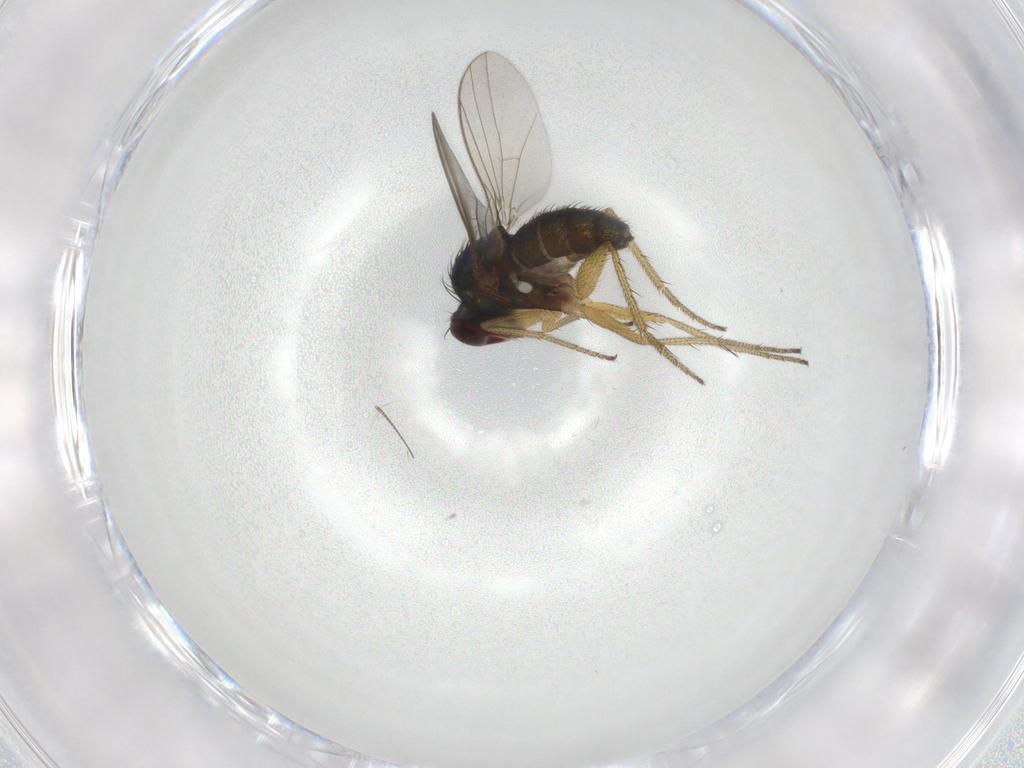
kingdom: Animalia
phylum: Arthropoda
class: Insecta
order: Diptera
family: Dolichopodidae
